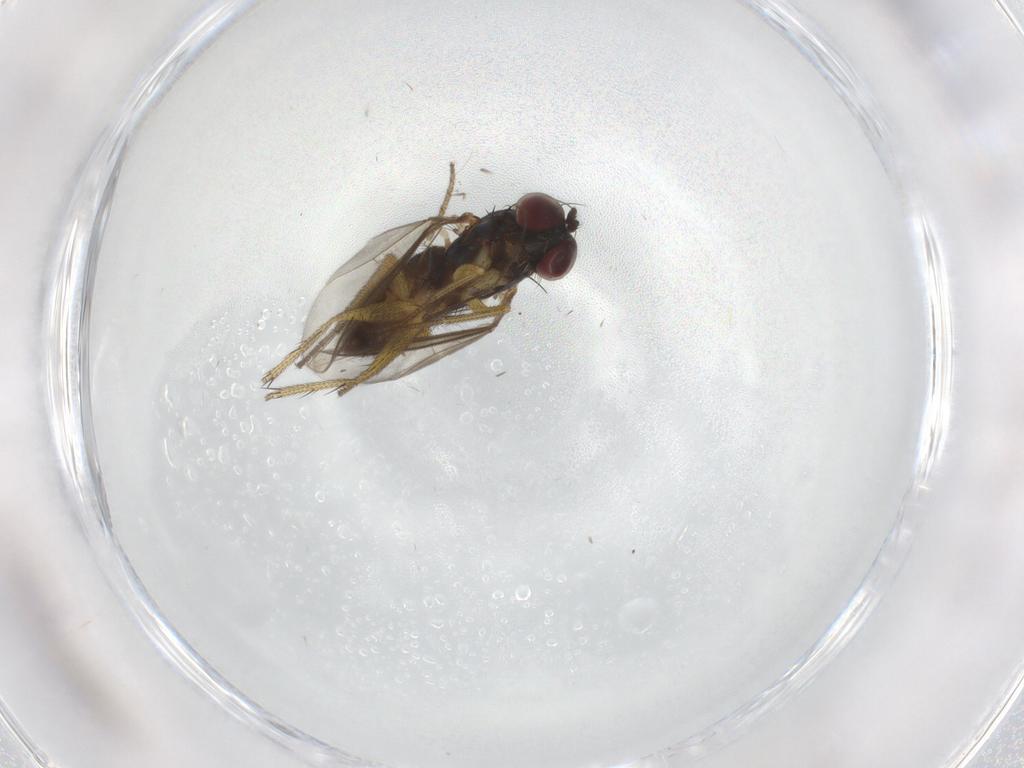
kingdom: Animalia
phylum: Arthropoda
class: Insecta
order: Diptera
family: Dolichopodidae
